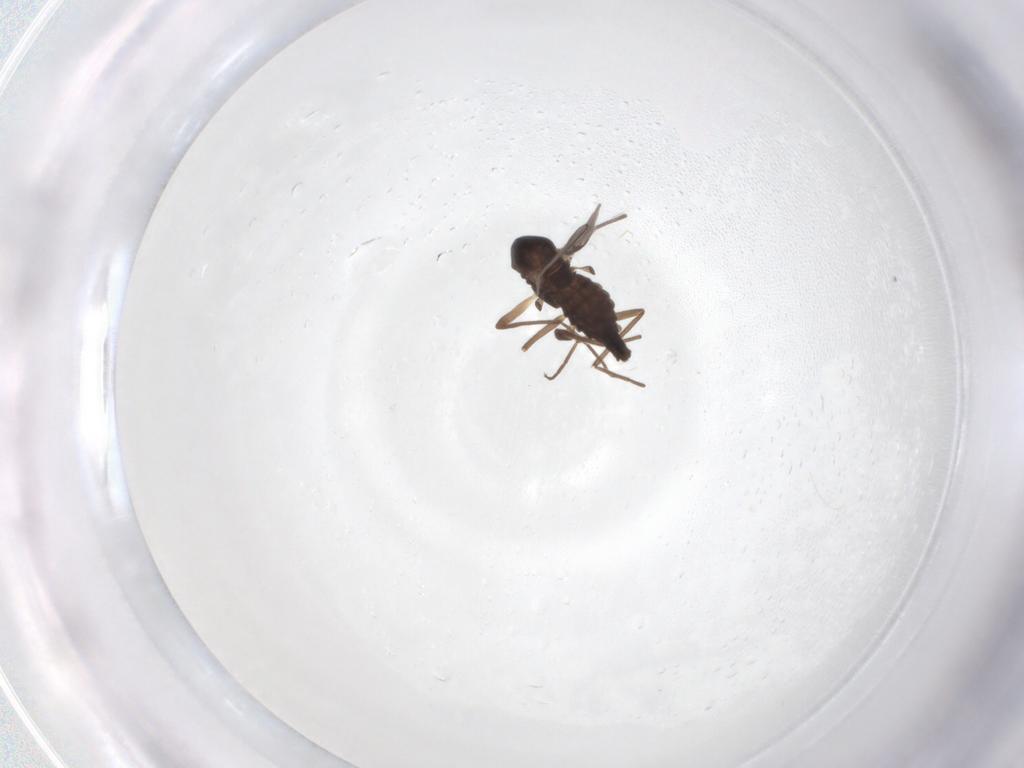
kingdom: Animalia
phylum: Arthropoda
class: Insecta
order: Diptera
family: Chironomidae
